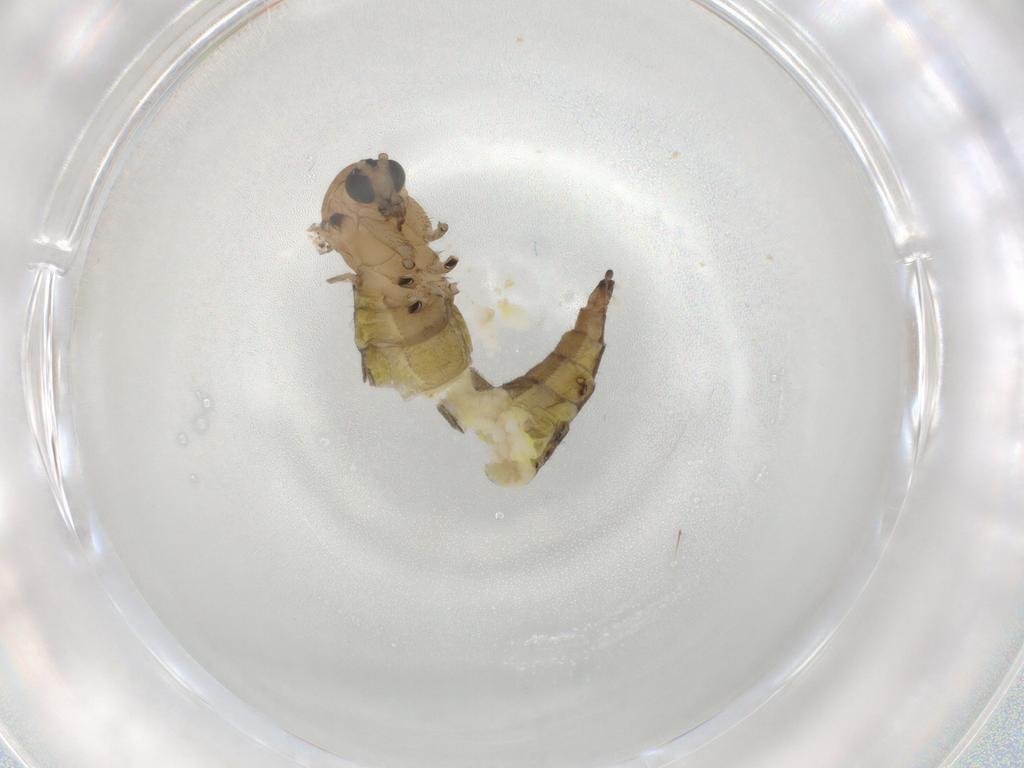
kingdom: Animalia
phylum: Arthropoda
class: Insecta
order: Diptera
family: Sciaridae
